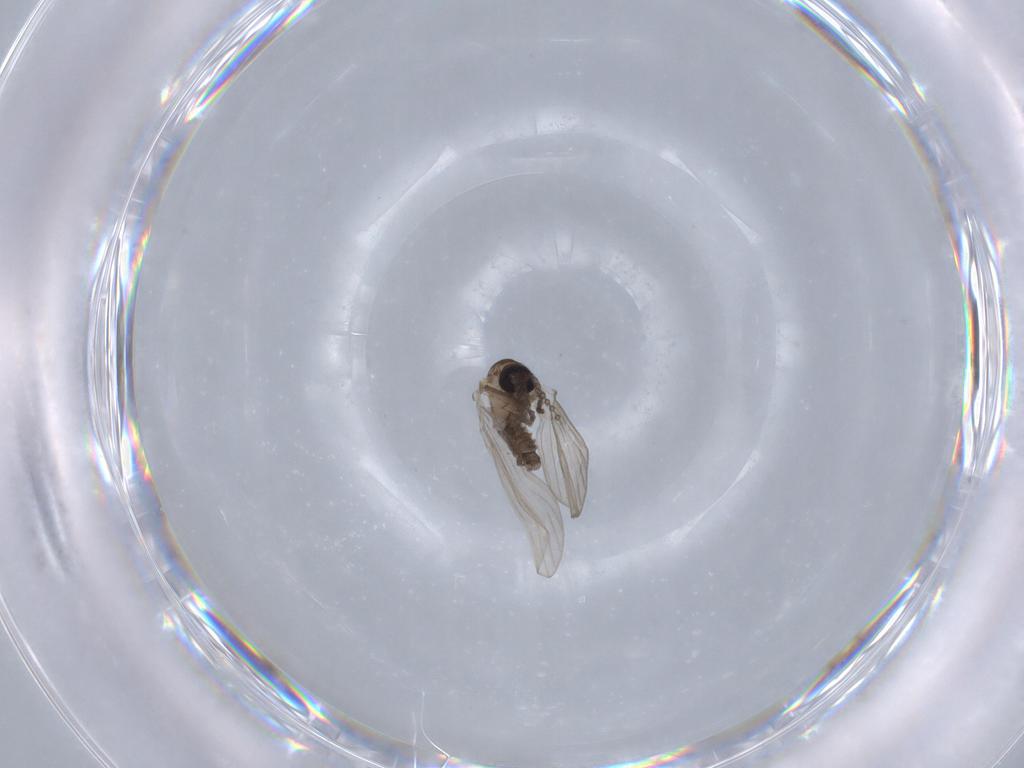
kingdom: Animalia
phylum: Arthropoda
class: Insecta
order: Diptera
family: Psychodidae
